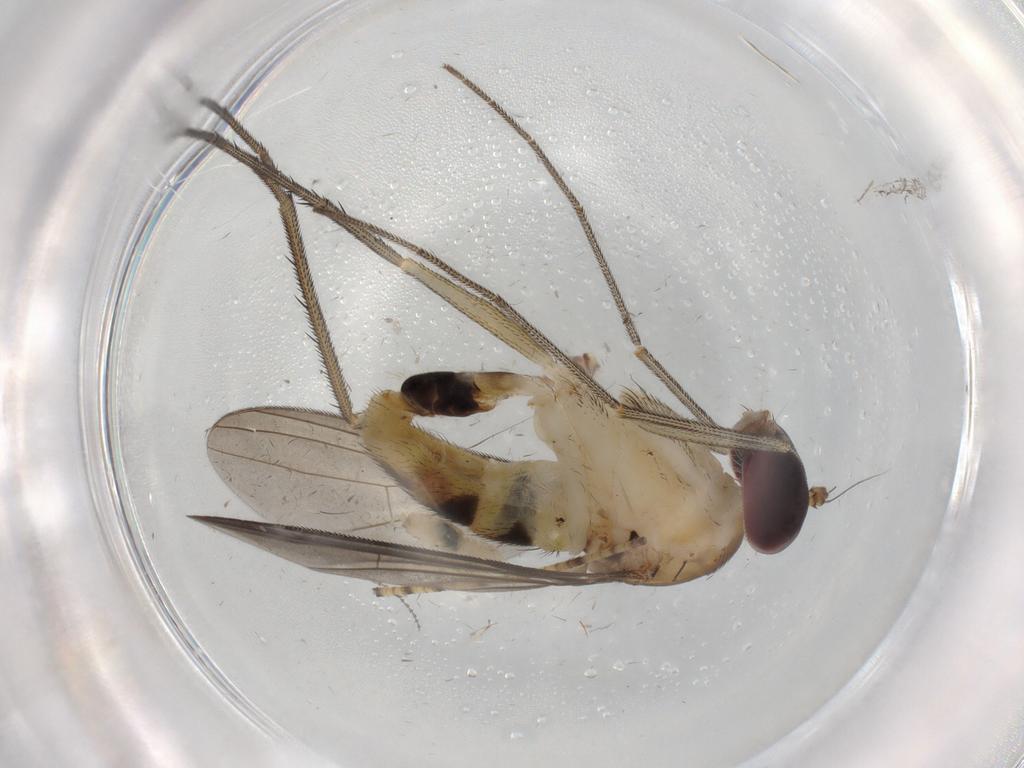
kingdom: Animalia
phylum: Arthropoda
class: Insecta
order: Diptera
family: Dolichopodidae
